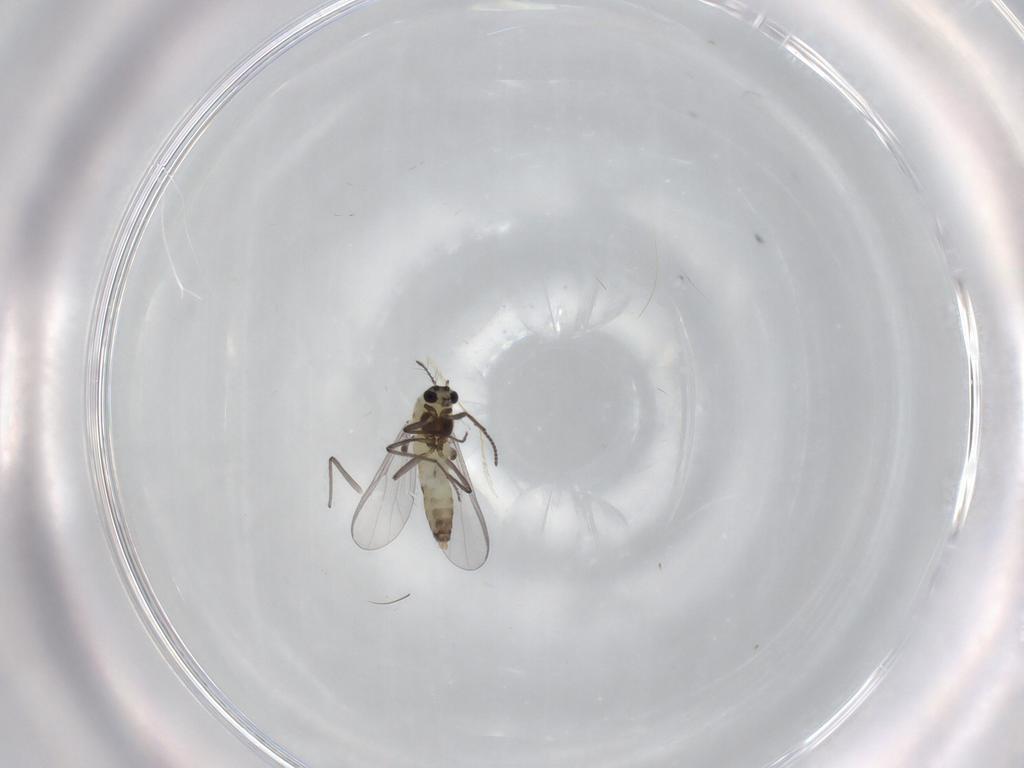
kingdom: Animalia
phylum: Arthropoda
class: Insecta
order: Diptera
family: Chironomidae
